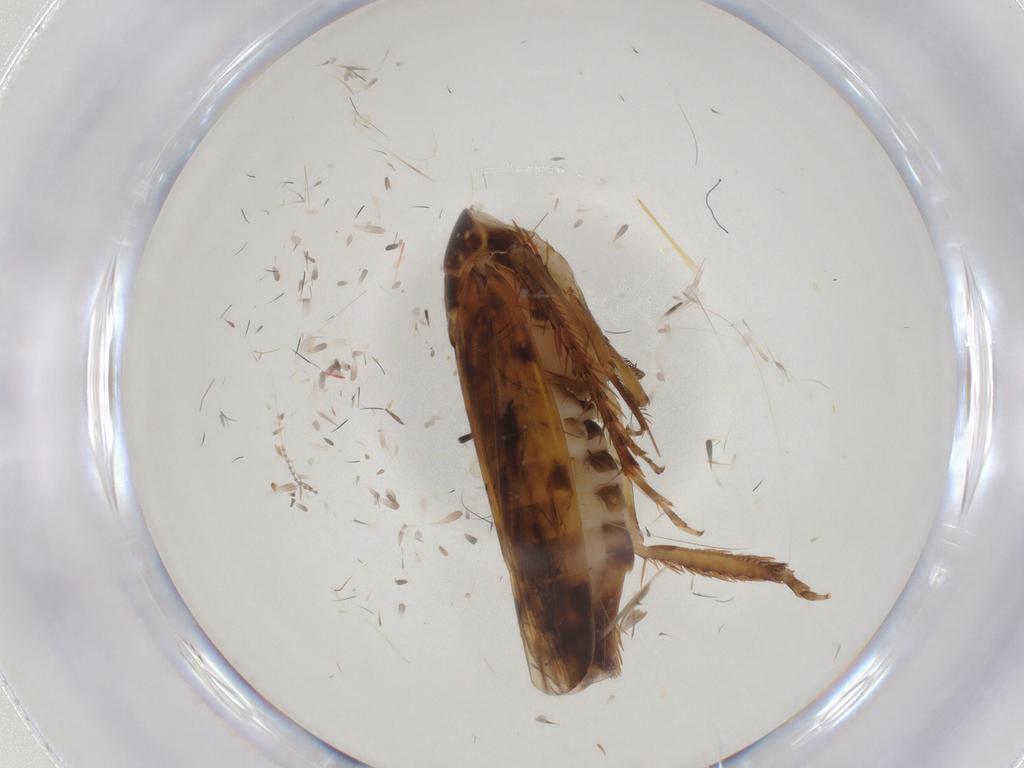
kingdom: Animalia
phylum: Arthropoda
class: Insecta
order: Hemiptera
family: Cicadellidae
